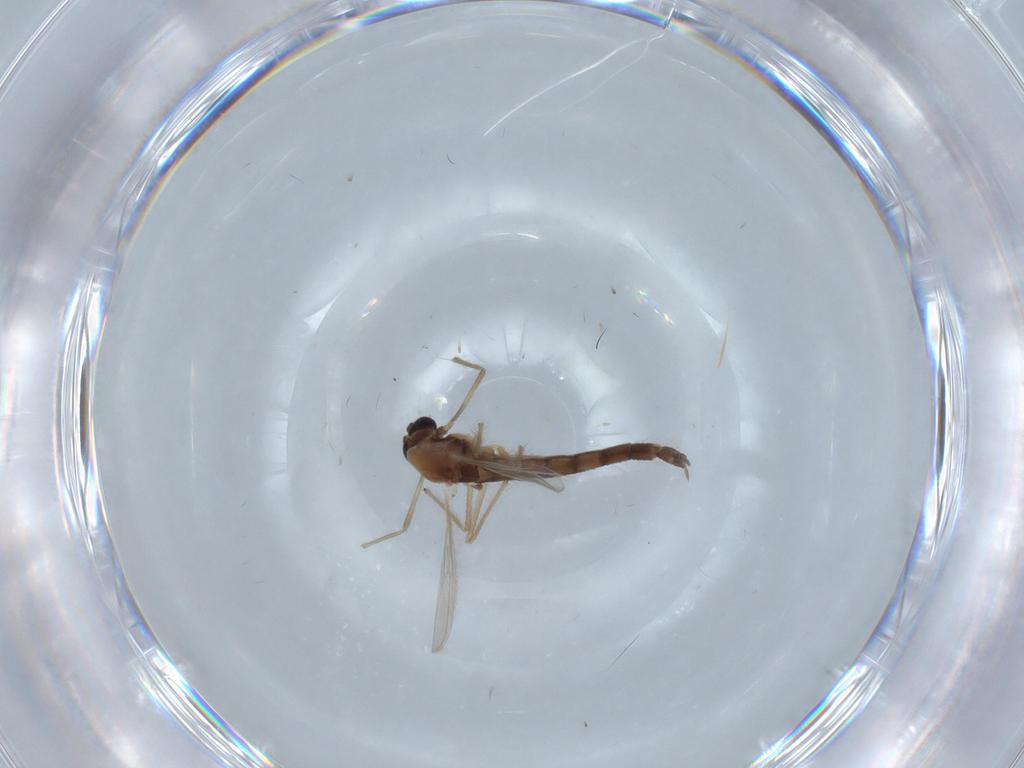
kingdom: Animalia
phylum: Arthropoda
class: Insecta
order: Diptera
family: Chironomidae
